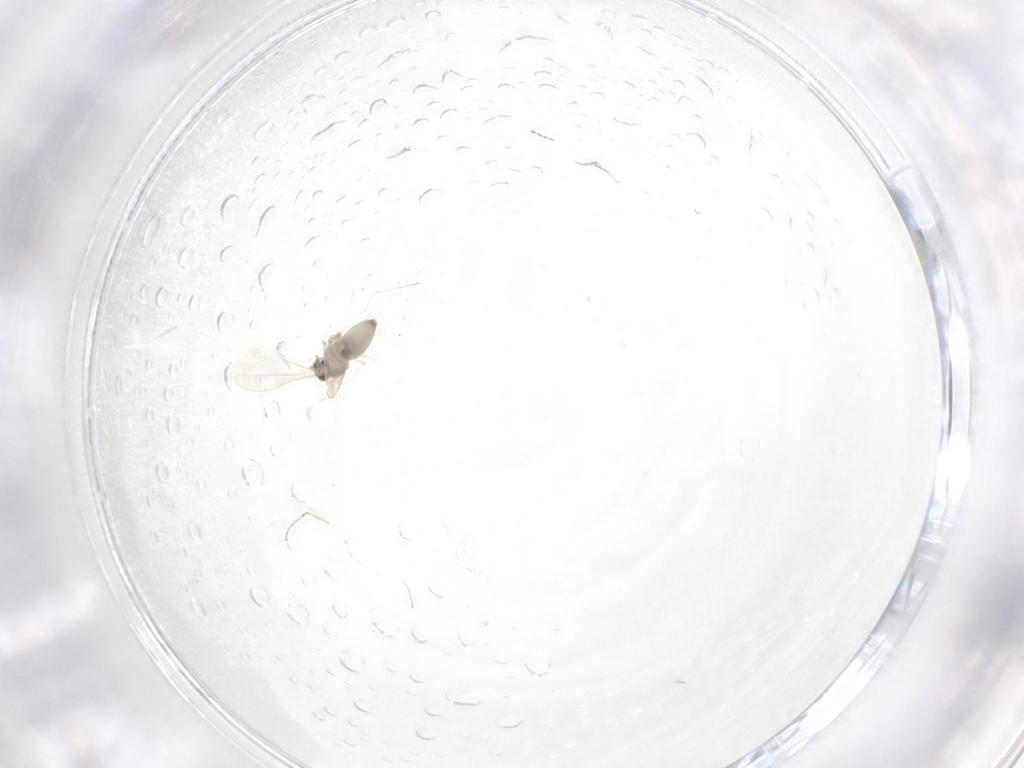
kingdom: Animalia
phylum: Arthropoda
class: Insecta
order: Diptera
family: Cecidomyiidae
